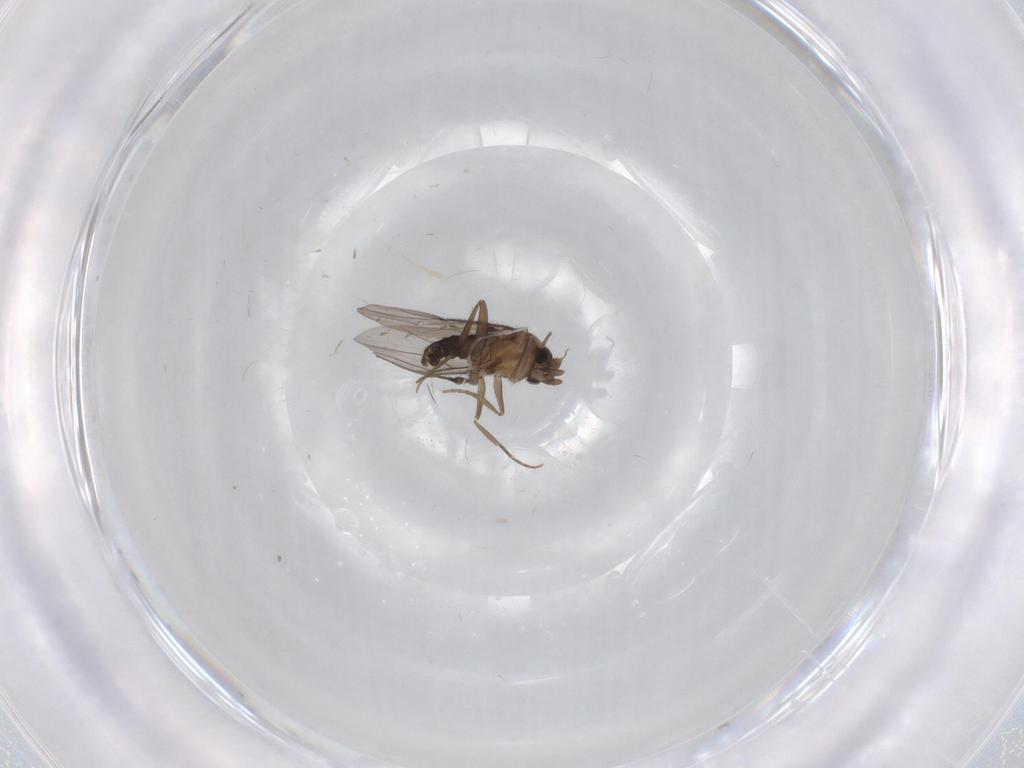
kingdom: Animalia
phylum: Arthropoda
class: Insecta
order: Diptera
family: Phoridae
